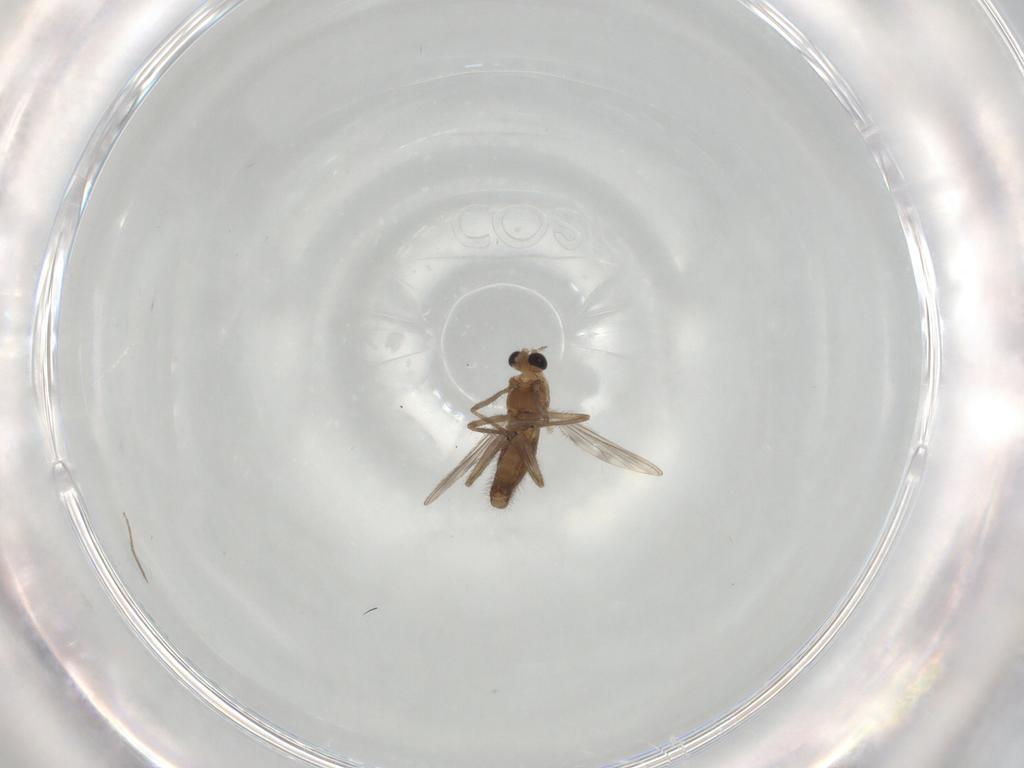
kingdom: Animalia
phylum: Arthropoda
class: Insecta
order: Diptera
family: Chironomidae
